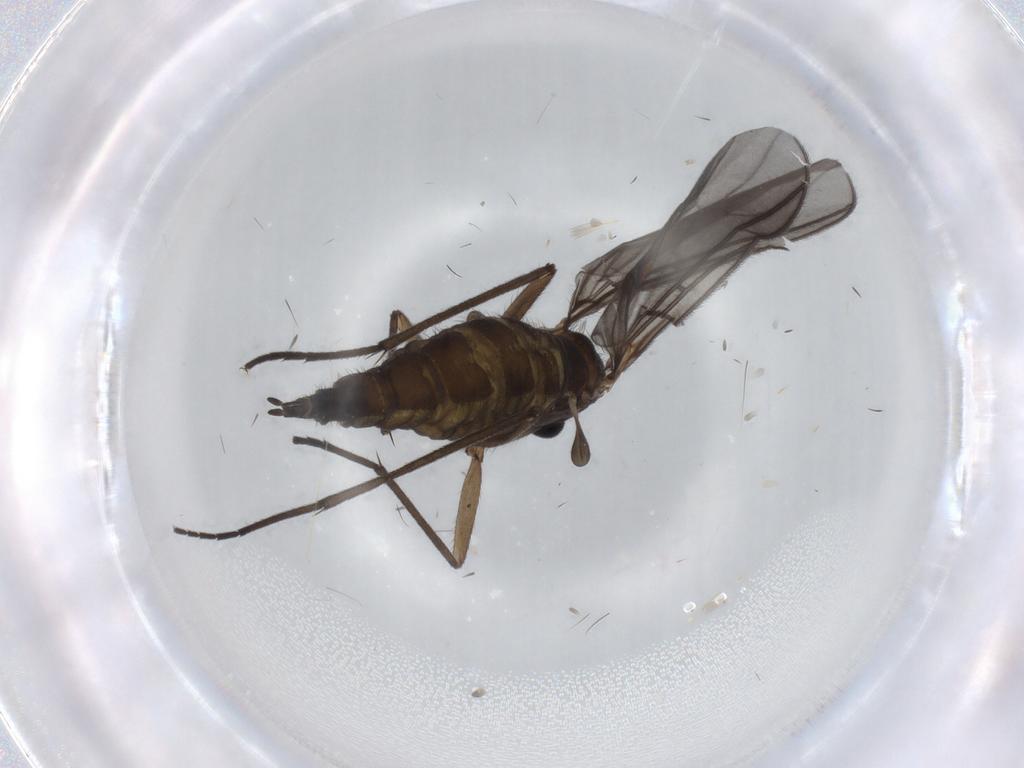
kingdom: Animalia
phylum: Arthropoda
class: Insecta
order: Diptera
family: Sciaridae
